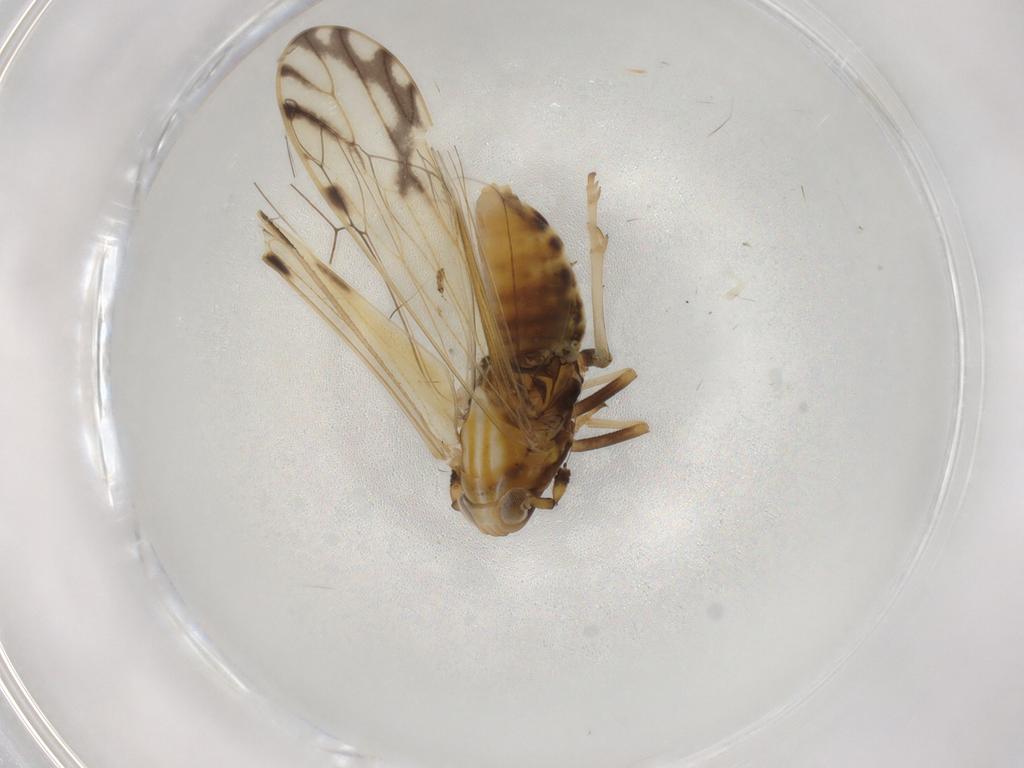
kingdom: Animalia
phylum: Arthropoda
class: Insecta
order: Hemiptera
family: Delphacidae
